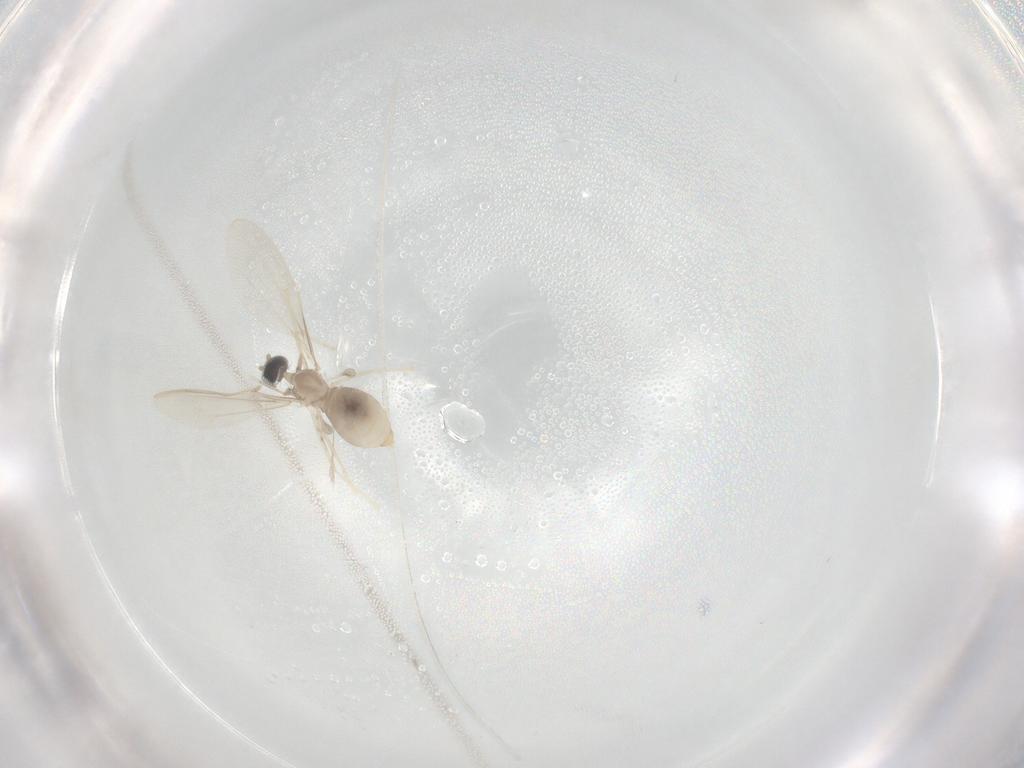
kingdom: Animalia
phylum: Arthropoda
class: Insecta
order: Diptera
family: Cecidomyiidae
